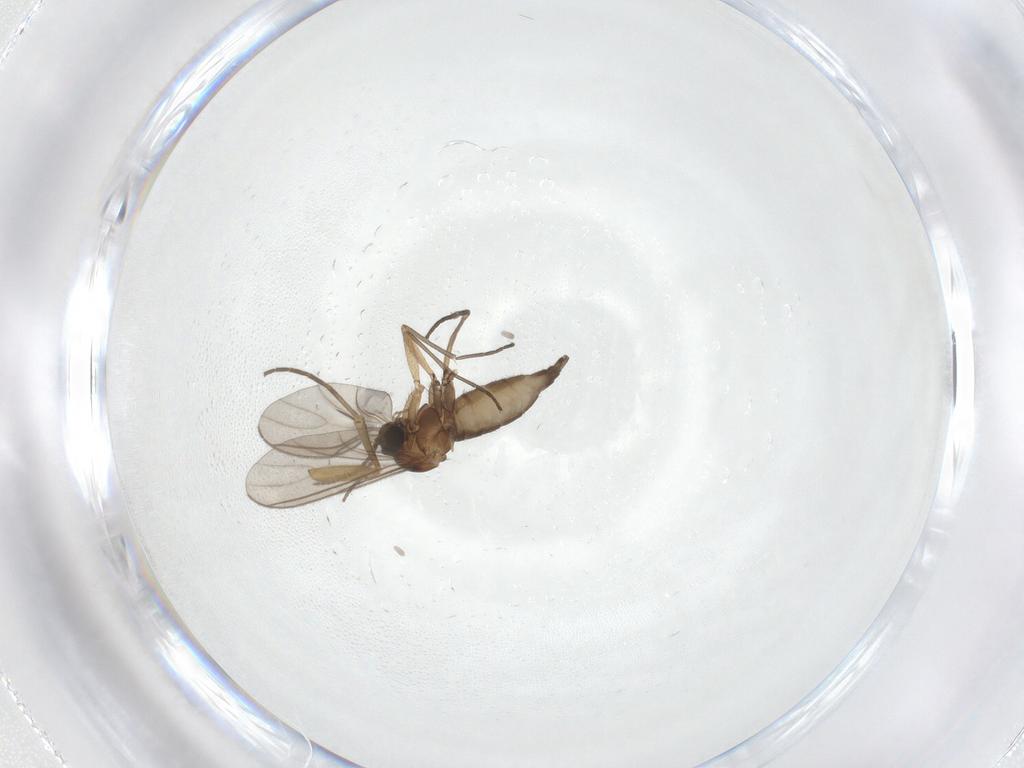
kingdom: Animalia
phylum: Arthropoda
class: Insecta
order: Diptera
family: Sciaridae
